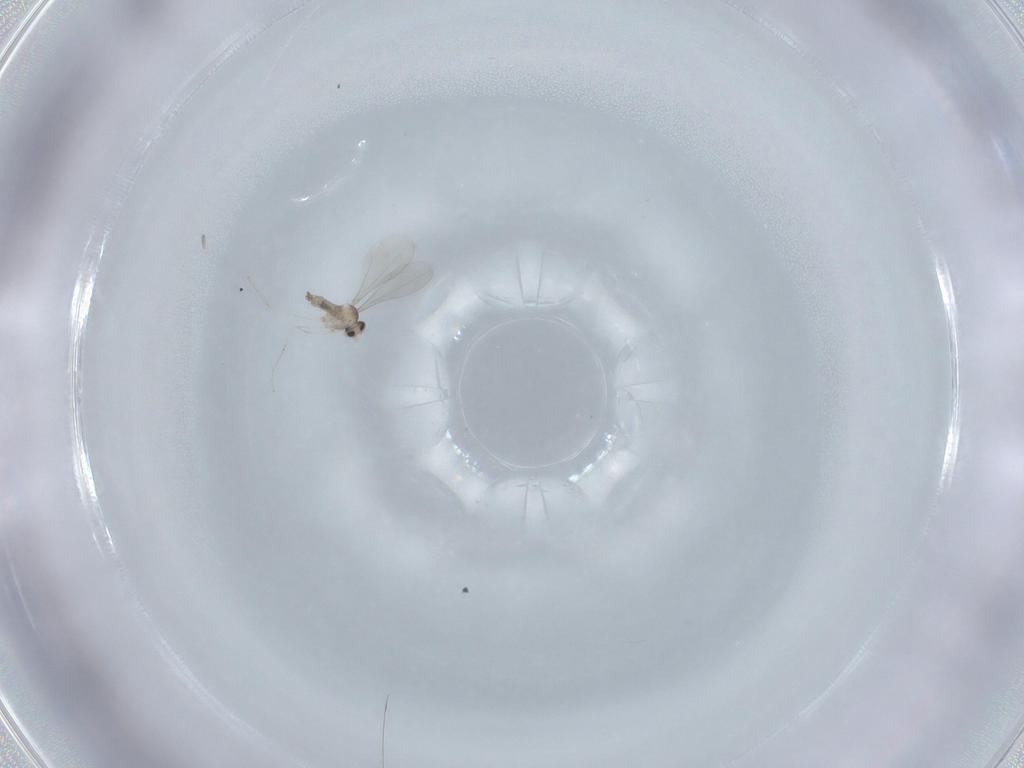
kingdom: Animalia
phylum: Arthropoda
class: Insecta
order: Diptera
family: Cecidomyiidae
